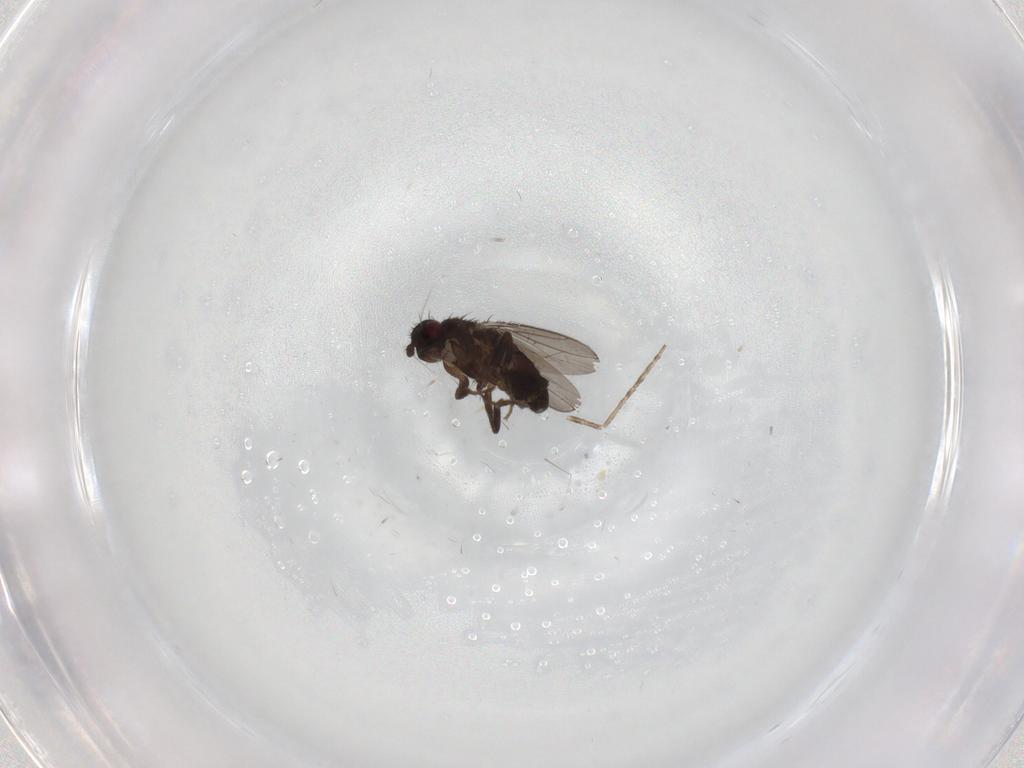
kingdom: Animalia
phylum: Arthropoda
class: Insecta
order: Diptera
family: Sphaeroceridae
